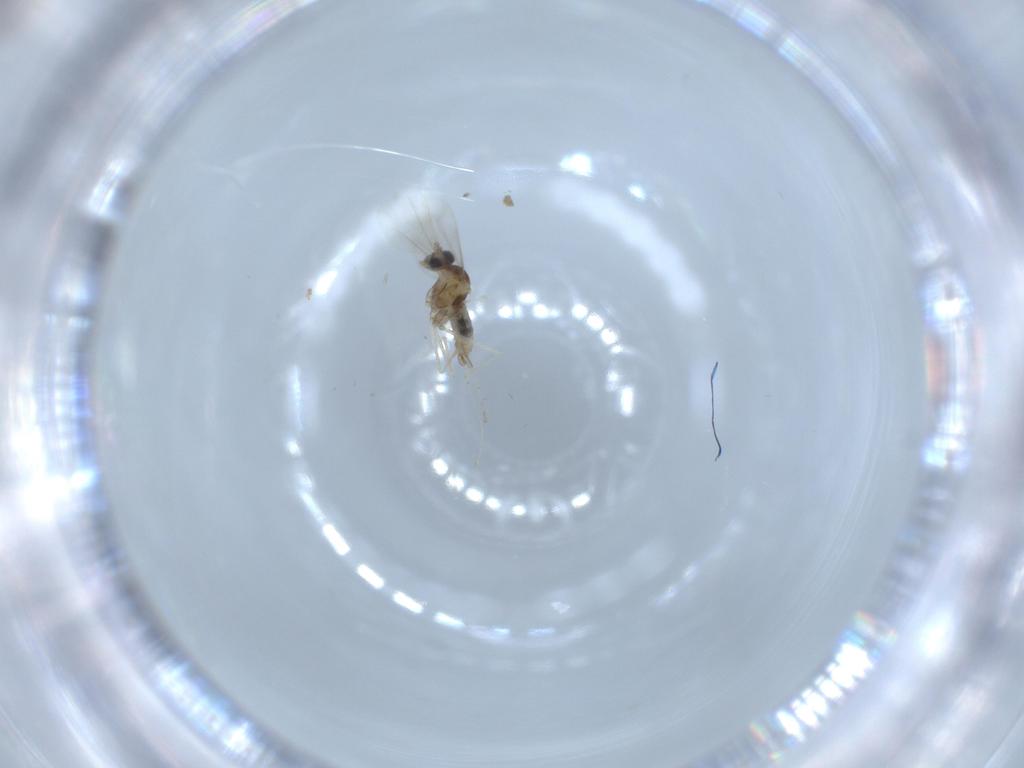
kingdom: Animalia
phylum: Arthropoda
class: Insecta
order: Diptera
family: Cecidomyiidae
